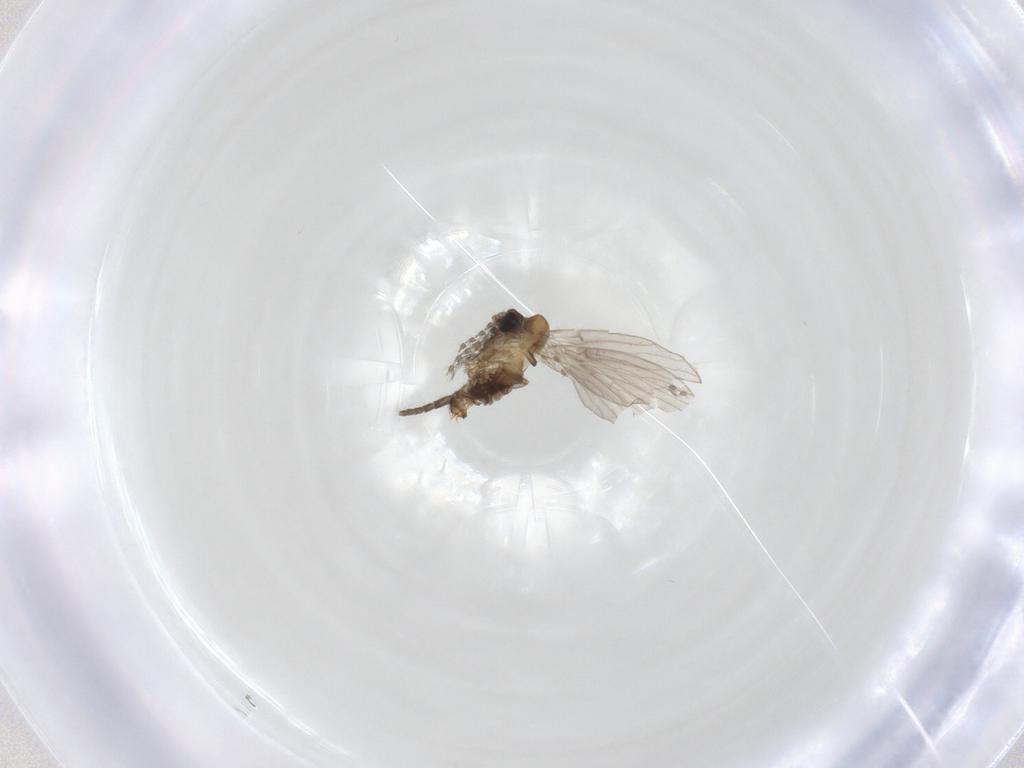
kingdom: Animalia
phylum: Arthropoda
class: Insecta
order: Diptera
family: Psychodidae
